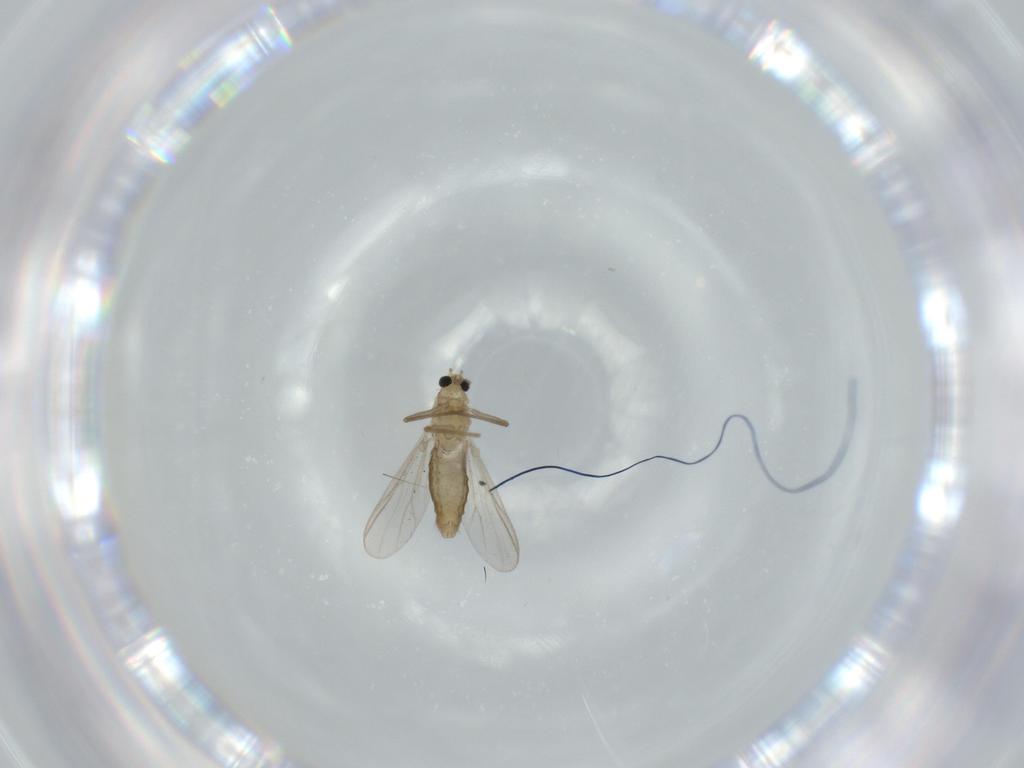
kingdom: Animalia
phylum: Arthropoda
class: Insecta
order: Diptera
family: Chironomidae
